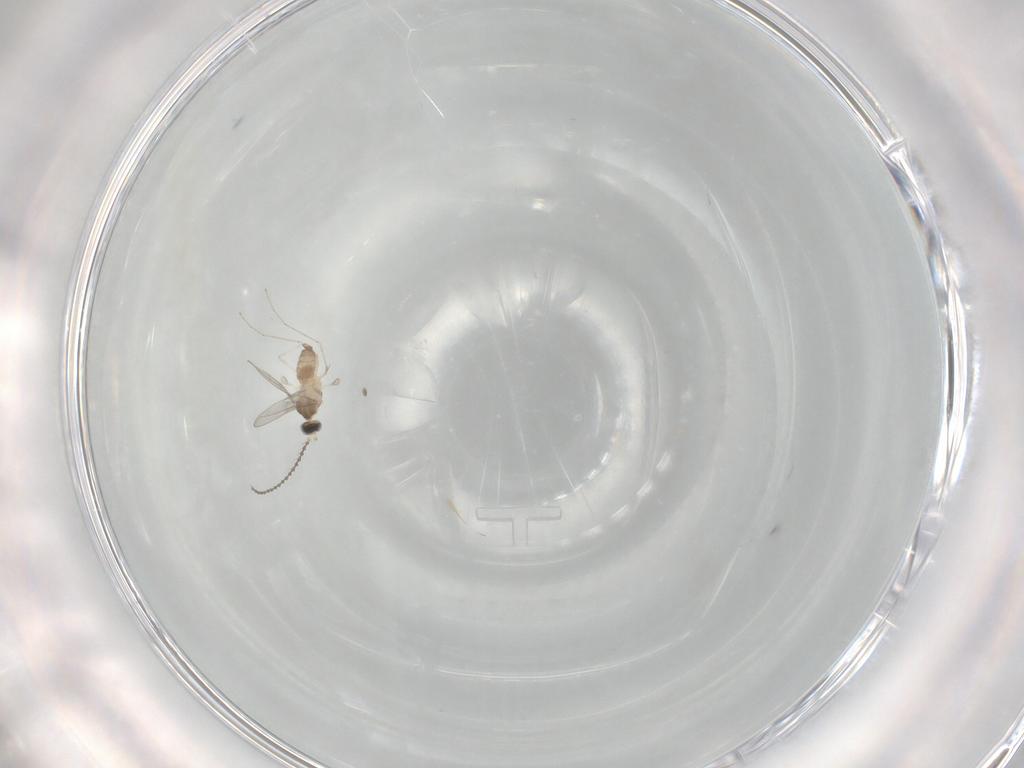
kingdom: Animalia
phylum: Arthropoda
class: Insecta
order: Diptera
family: Cecidomyiidae
